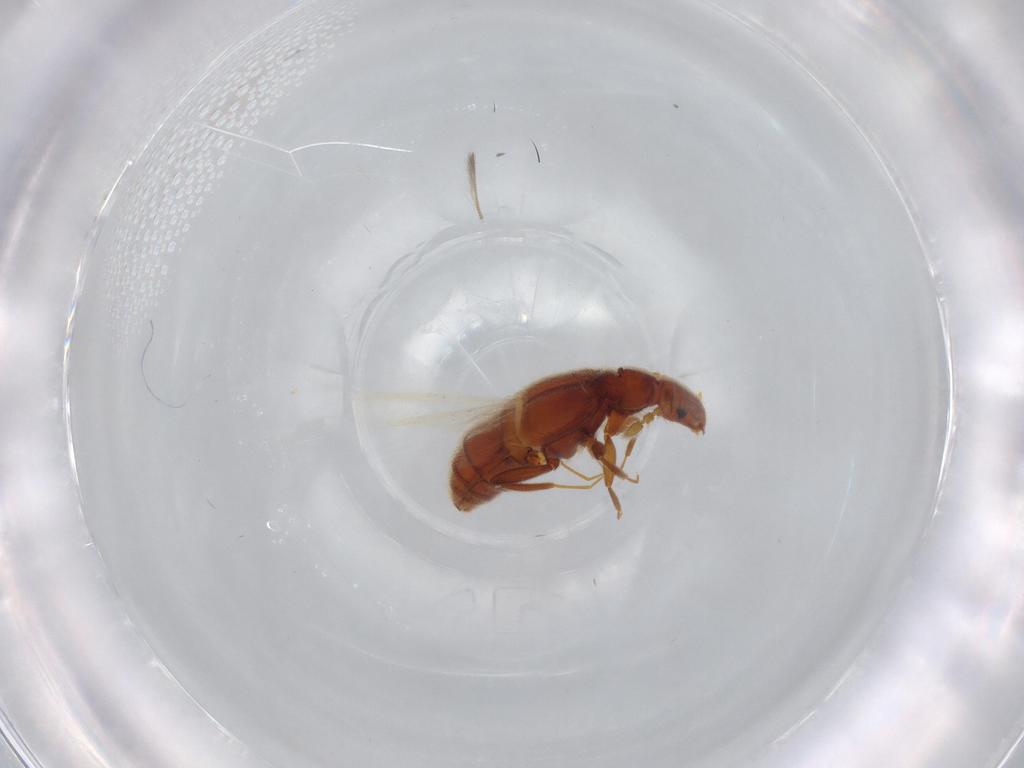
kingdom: Animalia
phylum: Arthropoda
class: Insecta
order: Coleoptera
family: Staphylinidae
